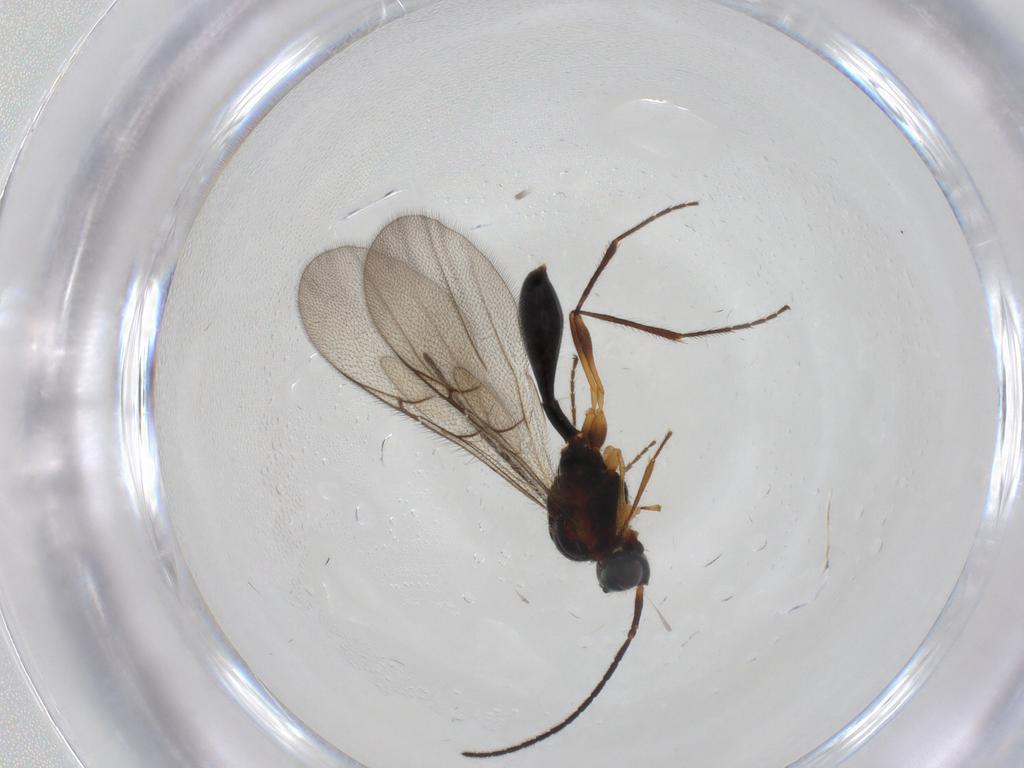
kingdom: Animalia
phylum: Arthropoda
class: Insecta
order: Hymenoptera
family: Diapriidae
